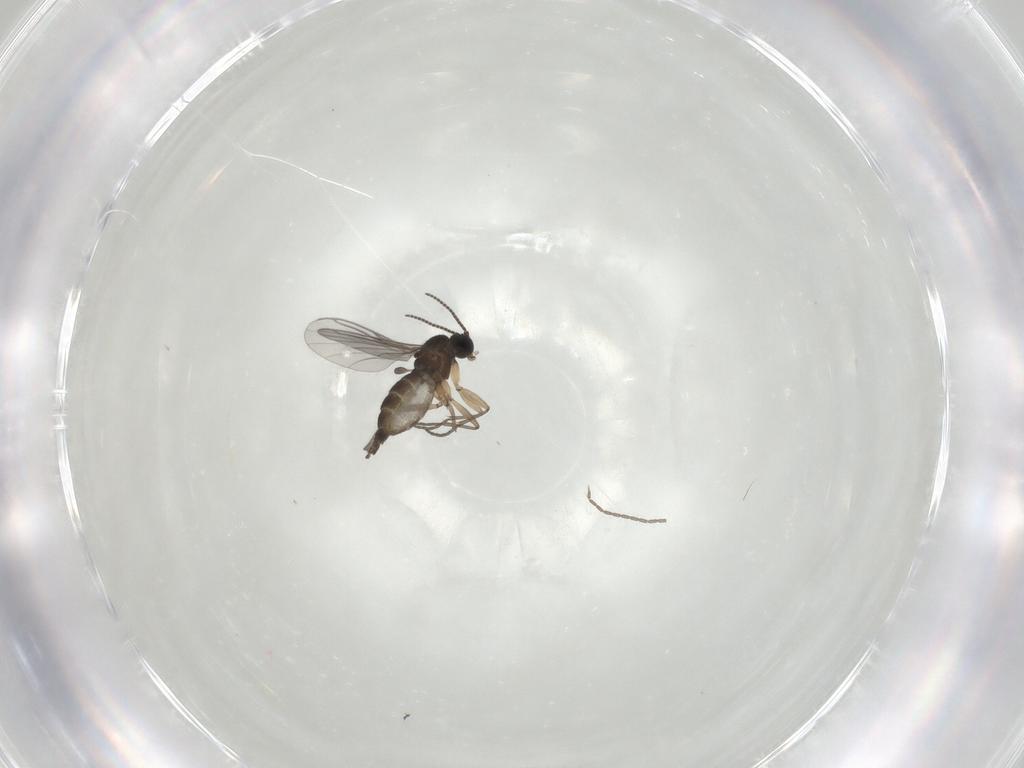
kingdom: Animalia
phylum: Arthropoda
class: Insecta
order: Diptera
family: Sciaridae
